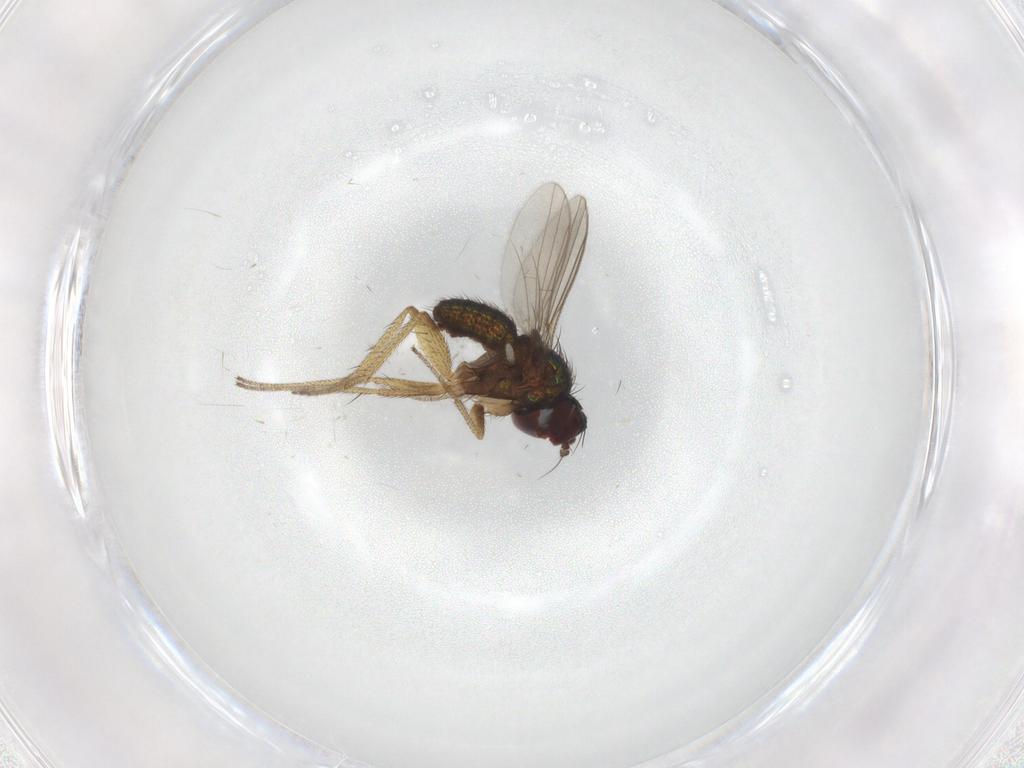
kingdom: Animalia
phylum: Arthropoda
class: Insecta
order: Diptera
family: Dolichopodidae
